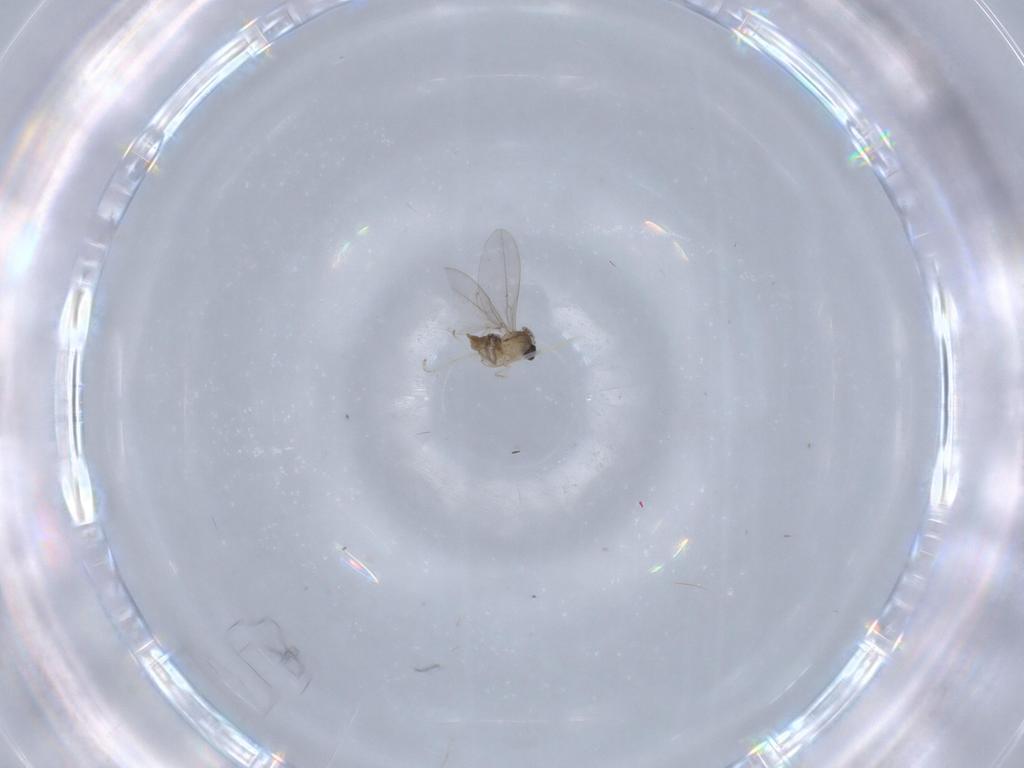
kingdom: Animalia
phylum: Arthropoda
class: Insecta
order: Diptera
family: Cecidomyiidae
